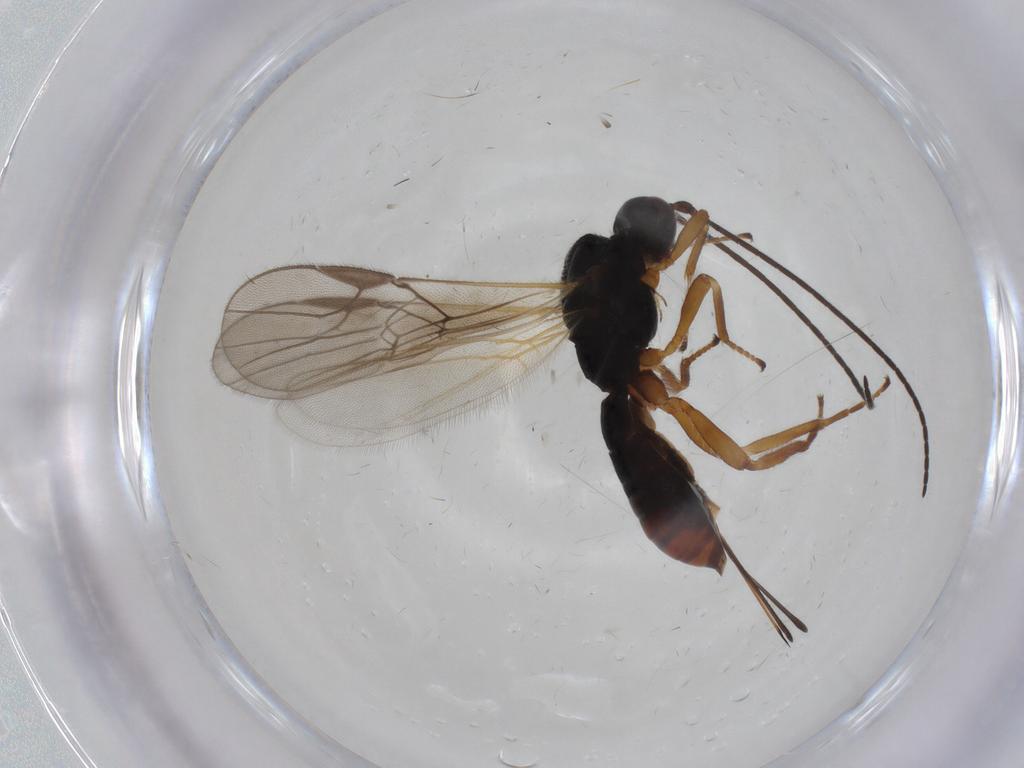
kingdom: Animalia
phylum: Arthropoda
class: Insecta
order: Hymenoptera
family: Braconidae
